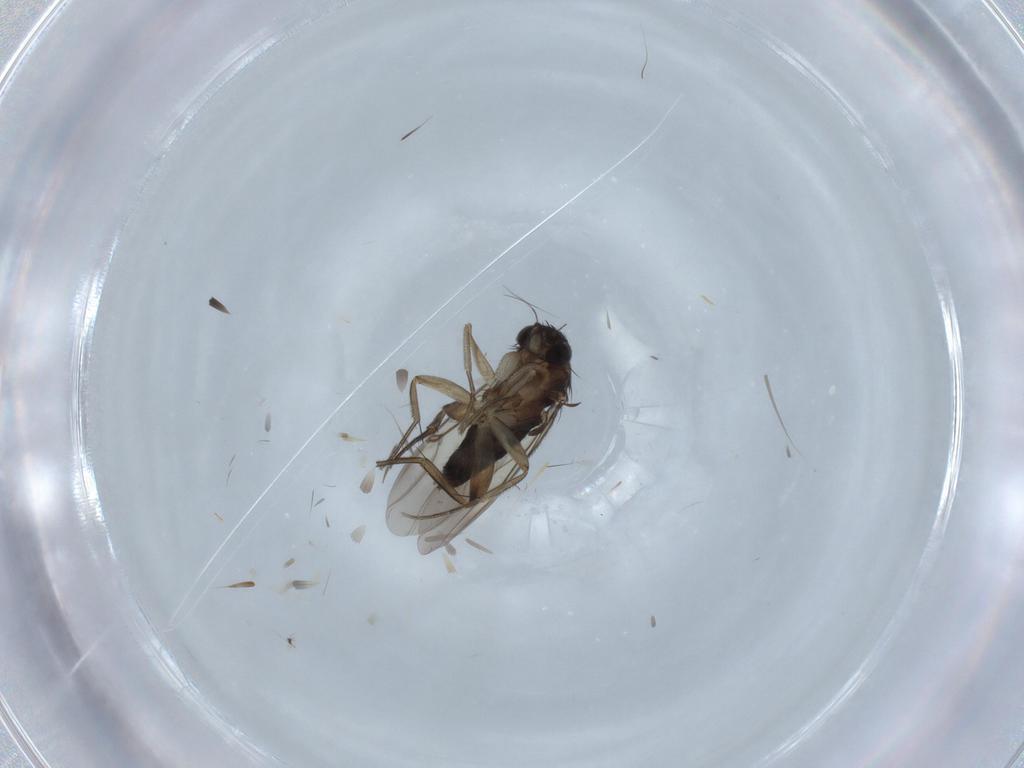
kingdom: Animalia
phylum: Arthropoda
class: Insecta
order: Diptera
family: Phoridae
